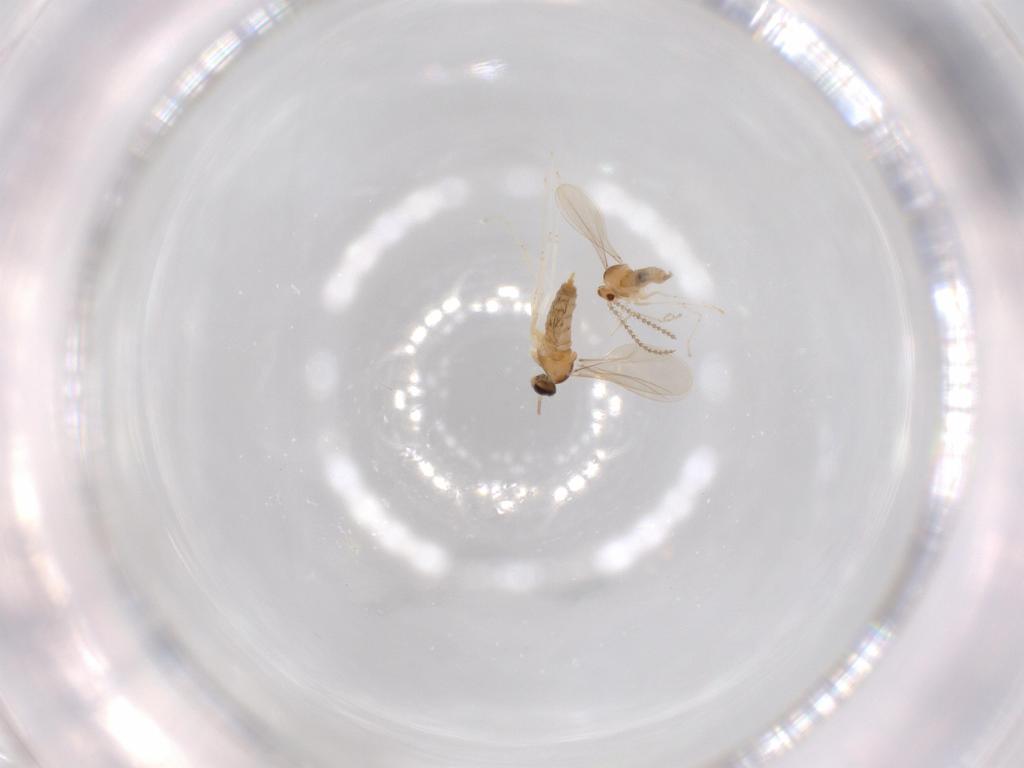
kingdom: Animalia
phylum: Arthropoda
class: Insecta
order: Diptera
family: Cecidomyiidae
